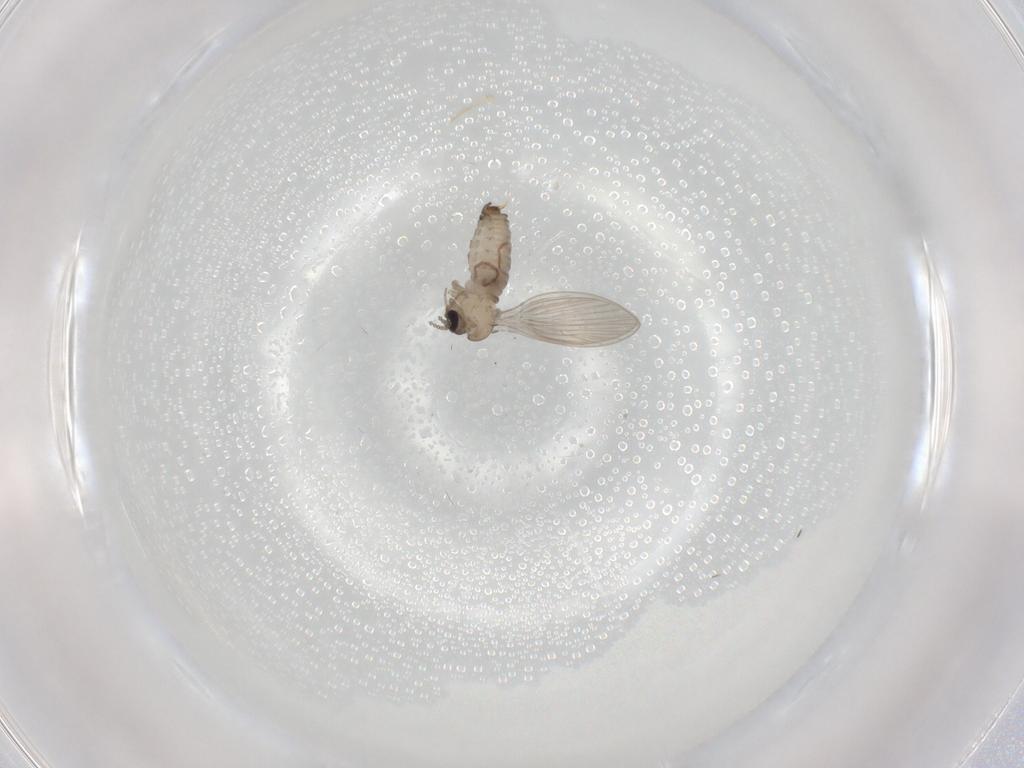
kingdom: Animalia
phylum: Arthropoda
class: Insecta
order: Diptera
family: Psychodidae
